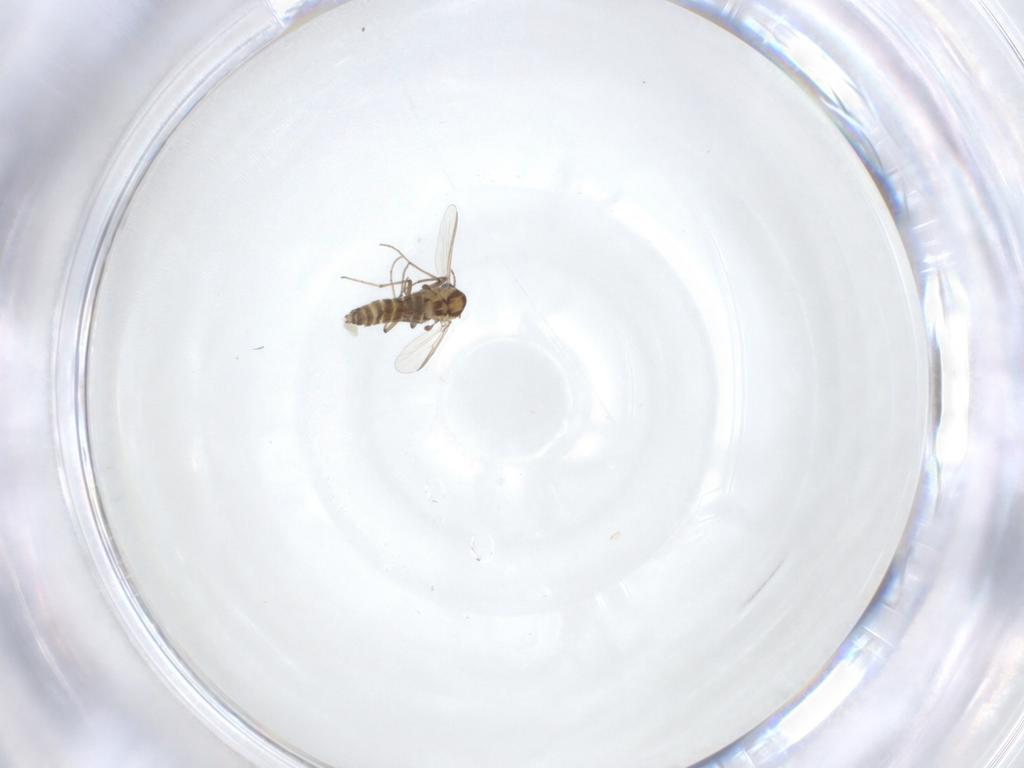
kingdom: Animalia
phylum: Arthropoda
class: Insecta
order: Diptera
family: Chironomidae
